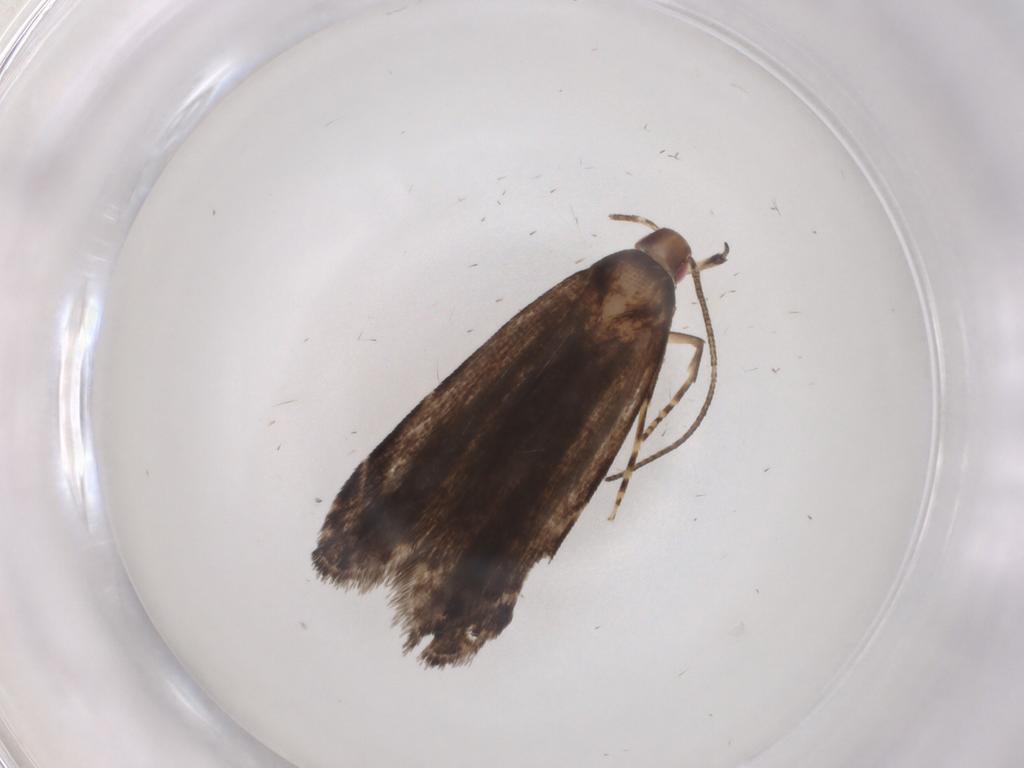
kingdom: Animalia
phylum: Arthropoda
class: Insecta
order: Lepidoptera
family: Gelechiidae
